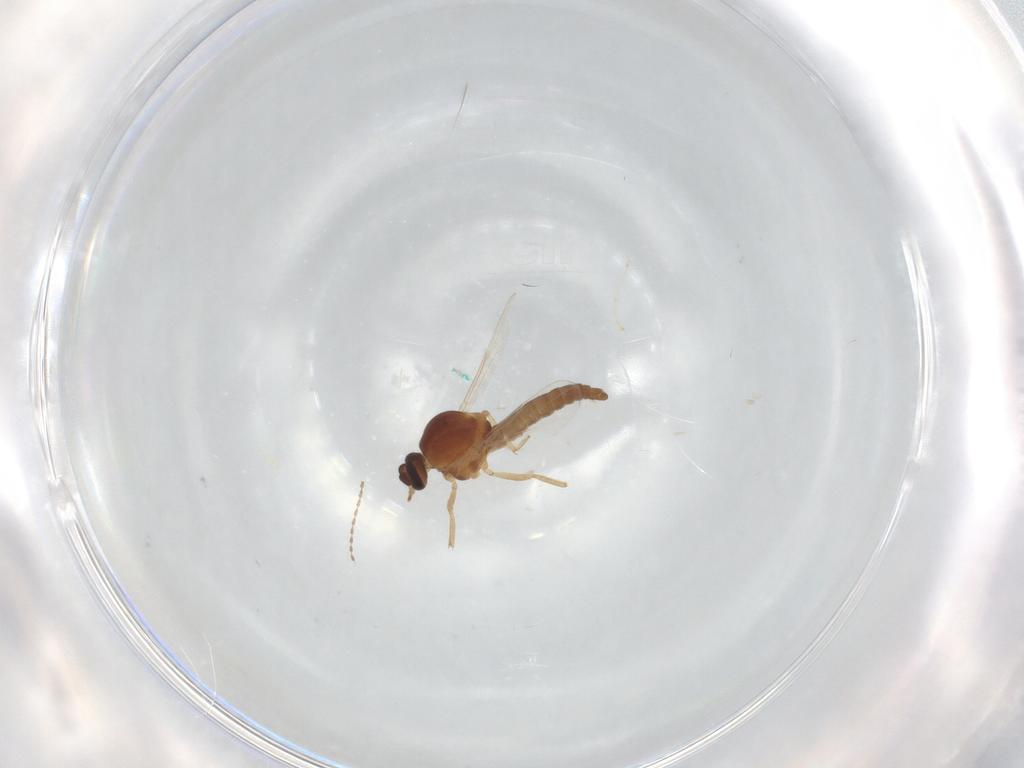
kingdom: Animalia
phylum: Arthropoda
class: Insecta
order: Diptera
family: Ceratopogonidae
